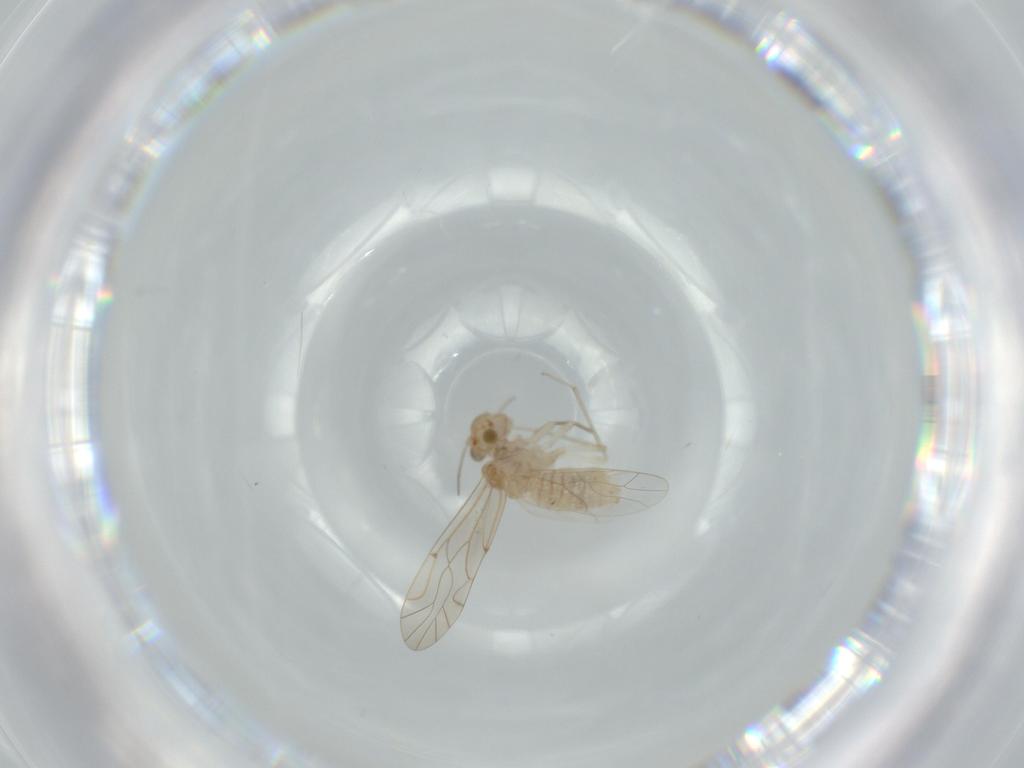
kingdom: Animalia
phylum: Arthropoda
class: Insecta
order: Psocodea
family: Lachesillidae
